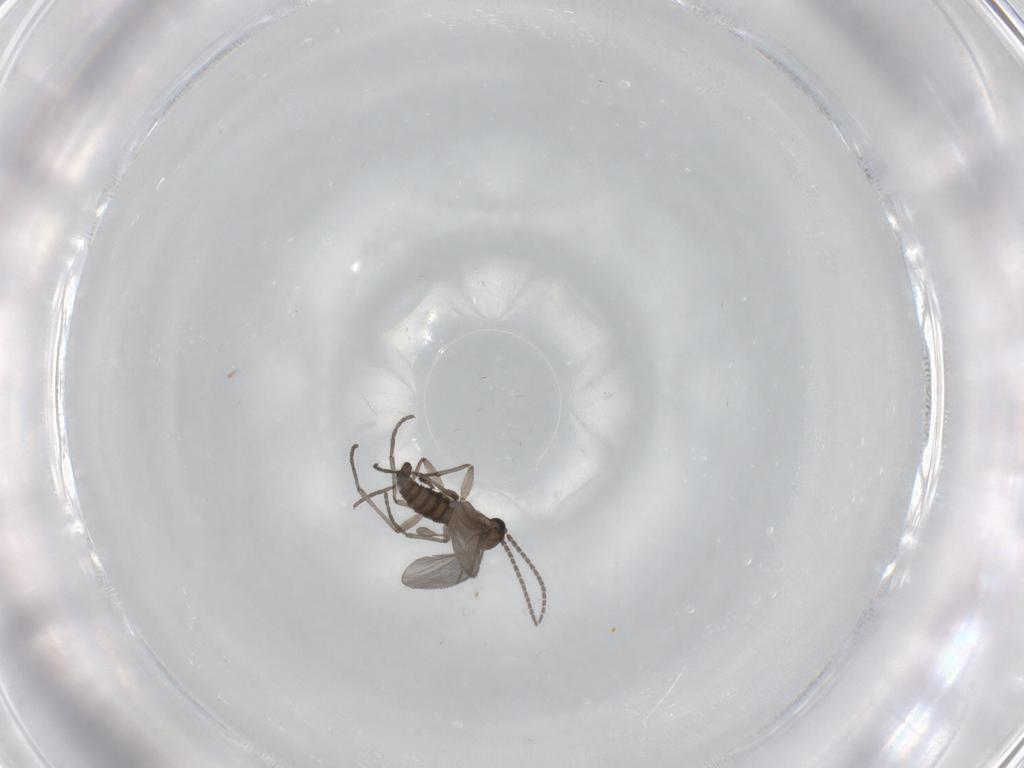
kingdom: Animalia
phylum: Arthropoda
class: Insecta
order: Diptera
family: Sciaridae
